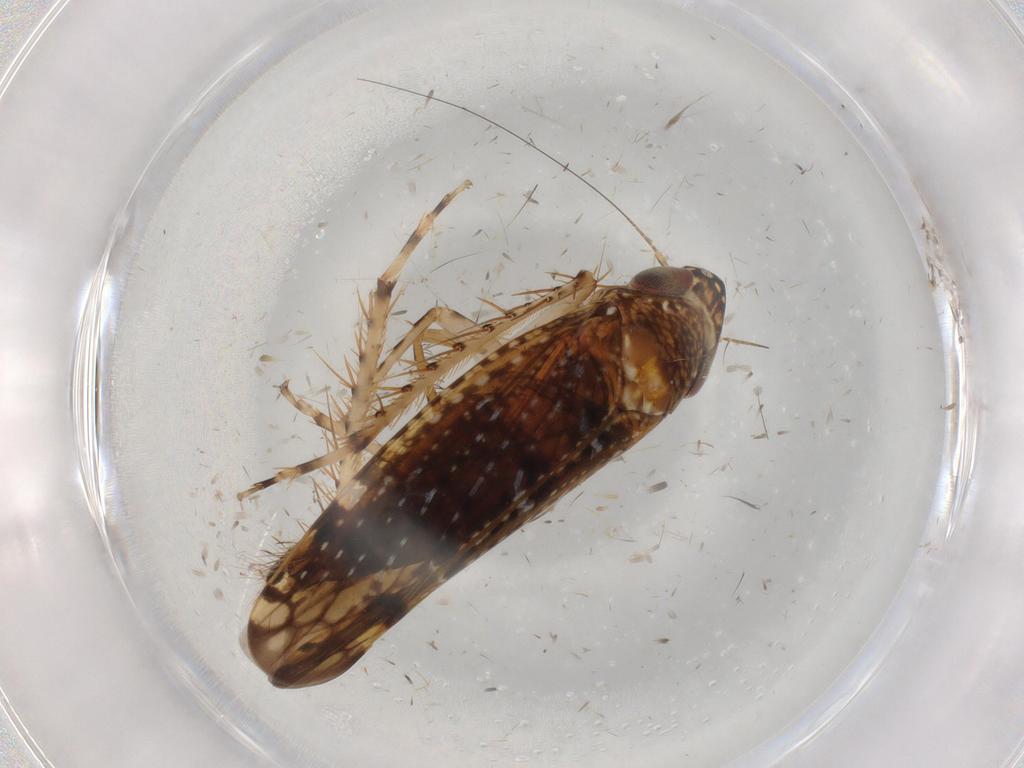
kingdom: Animalia
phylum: Arthropoda
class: Insecta
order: Hemiptera
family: Cicadellidae
